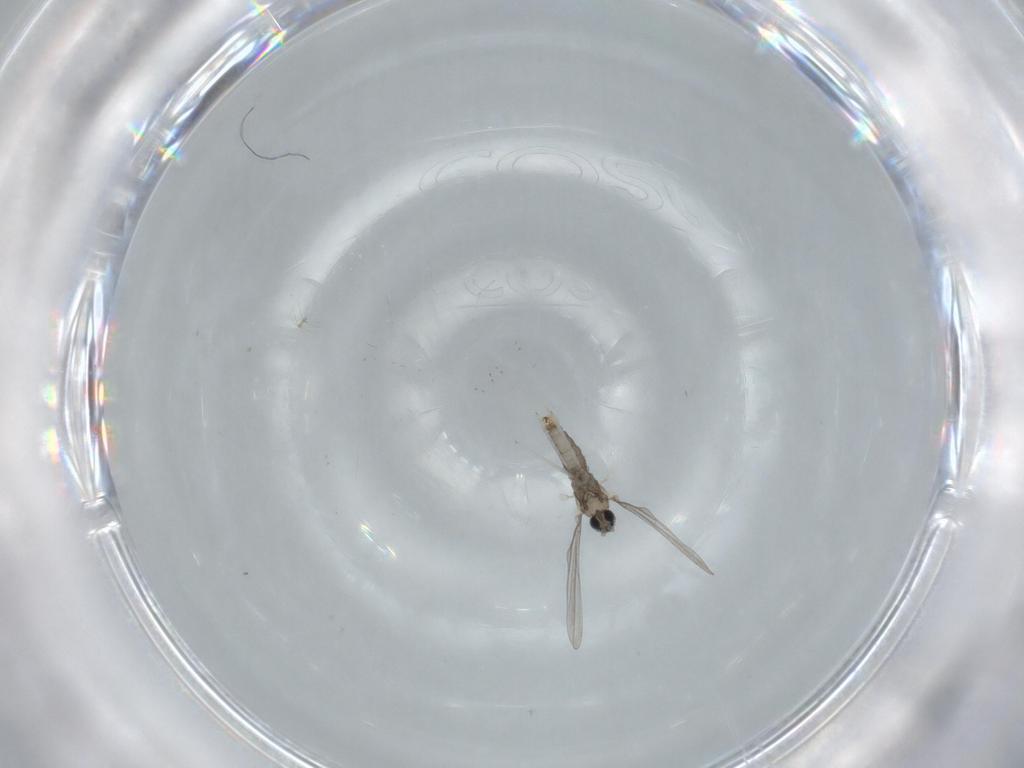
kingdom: Animalia
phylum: Arthropoda
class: Insecta
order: Diptera
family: Cecidomyiidae
